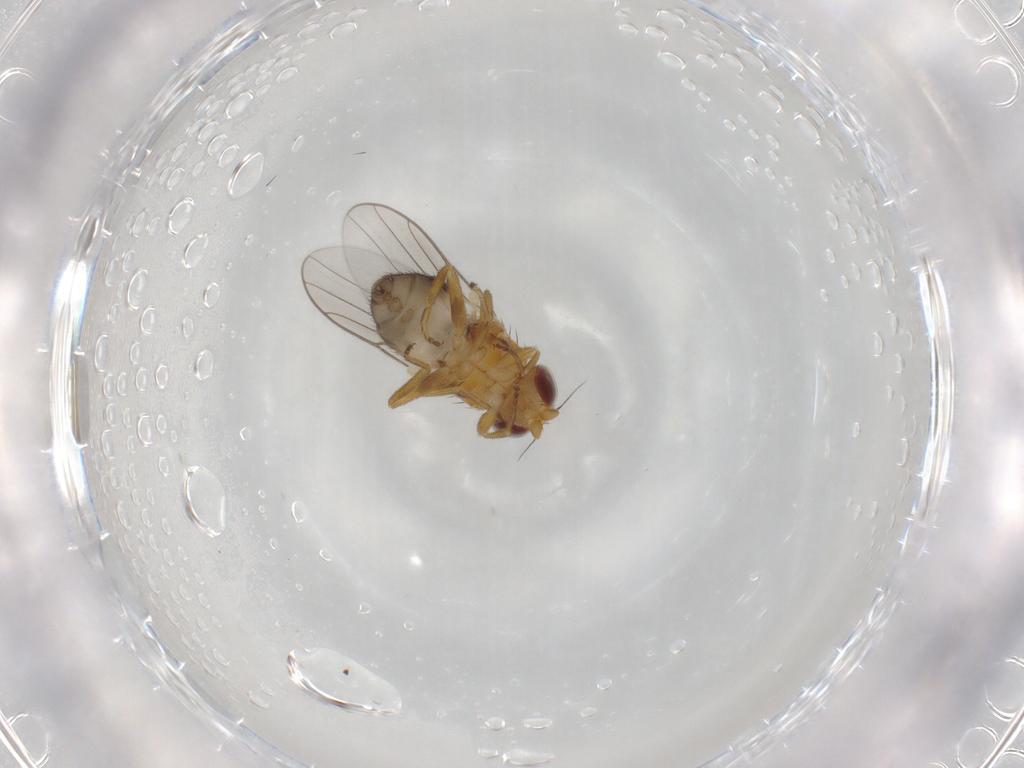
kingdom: Animalia
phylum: Arthropoda
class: Insecta
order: Diptera
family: Chloropidae
